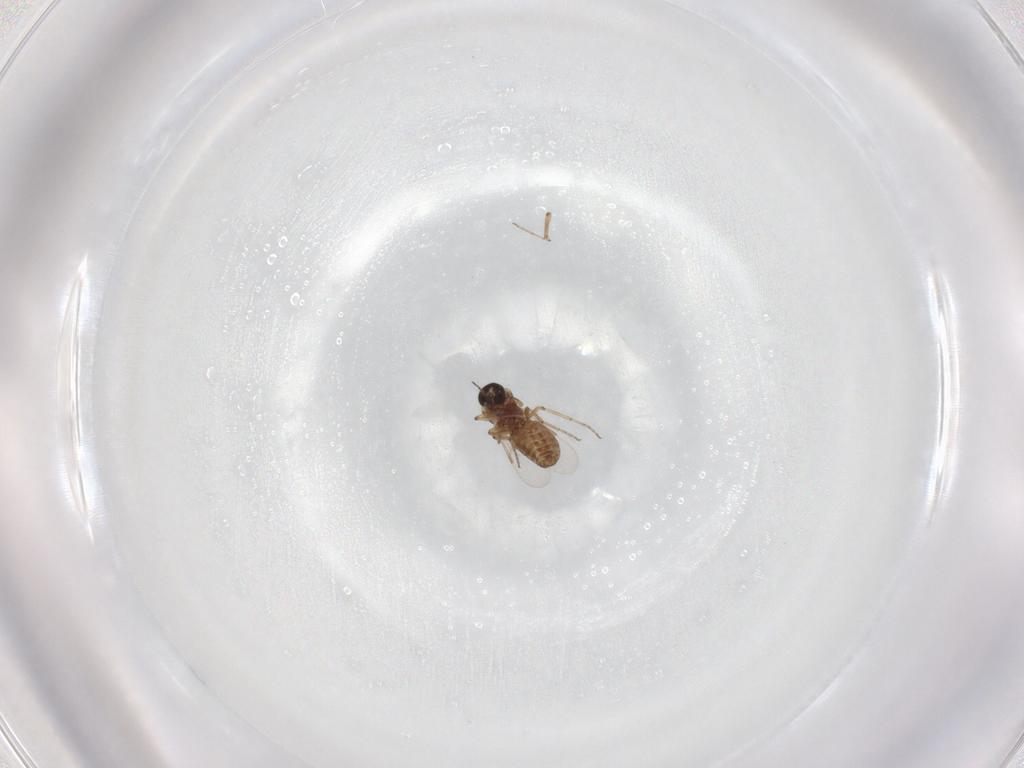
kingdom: Animalia
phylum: Arthropoda
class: Insecta
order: Diptera
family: Ceratopogonidae
